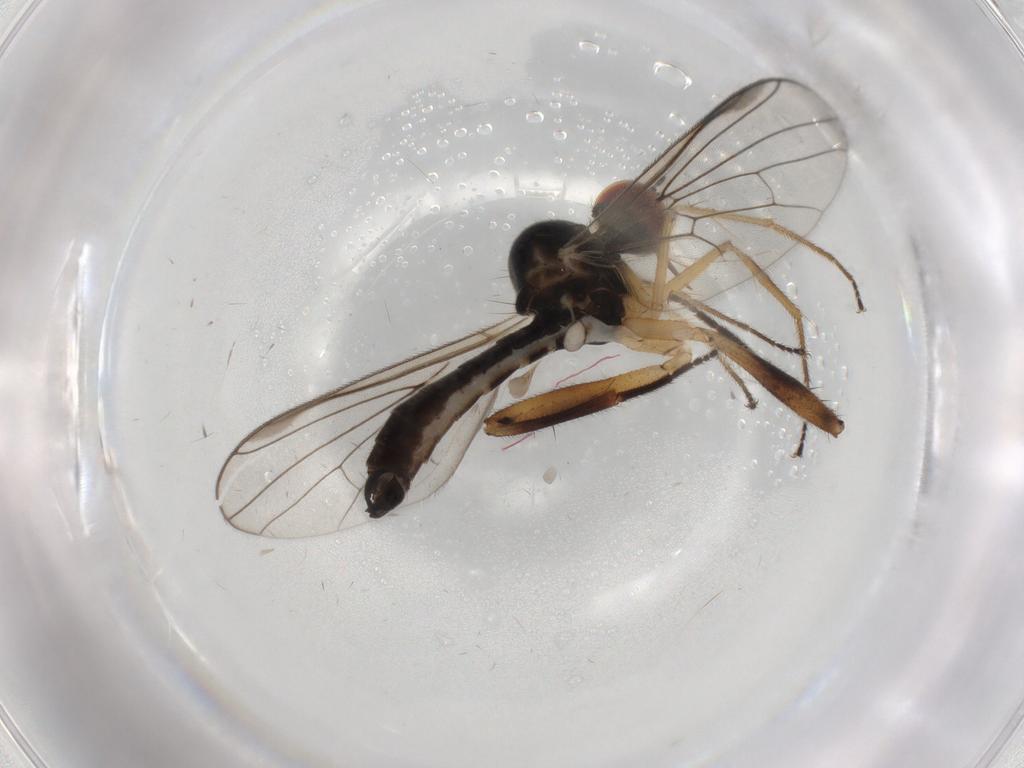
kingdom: Animalia
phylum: Arthropoda
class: Insecta
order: Diptera
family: Hybotidae
